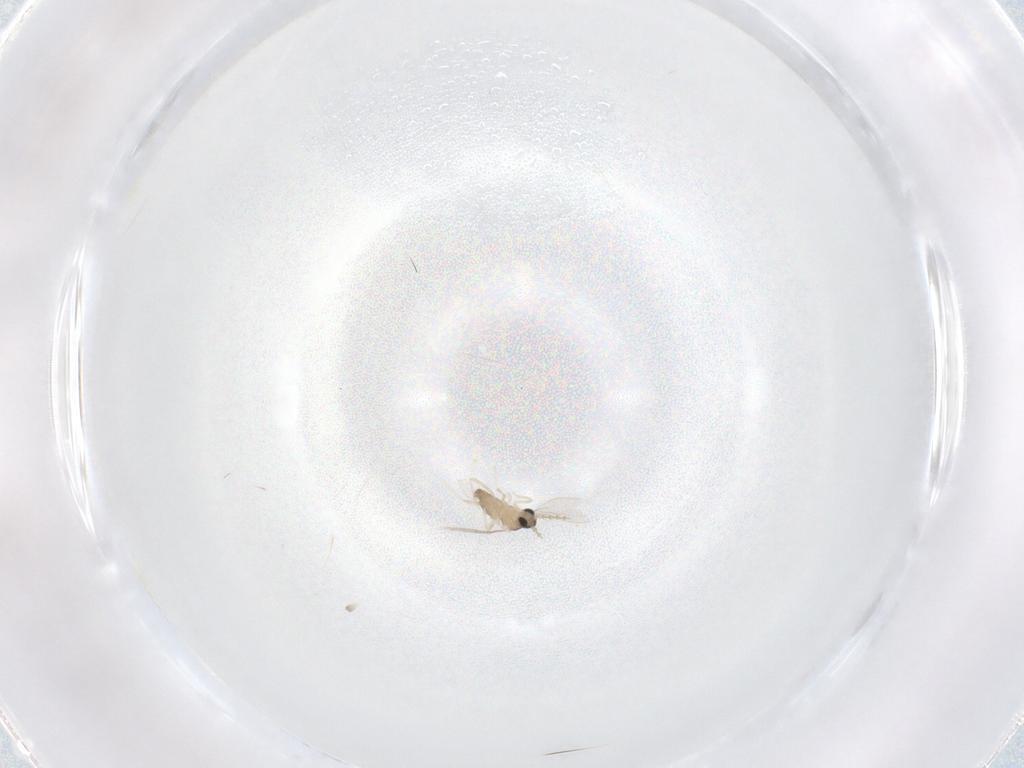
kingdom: Animalia
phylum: Arthropoda
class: Insecta
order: Diptera
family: Cecidomyiidae
